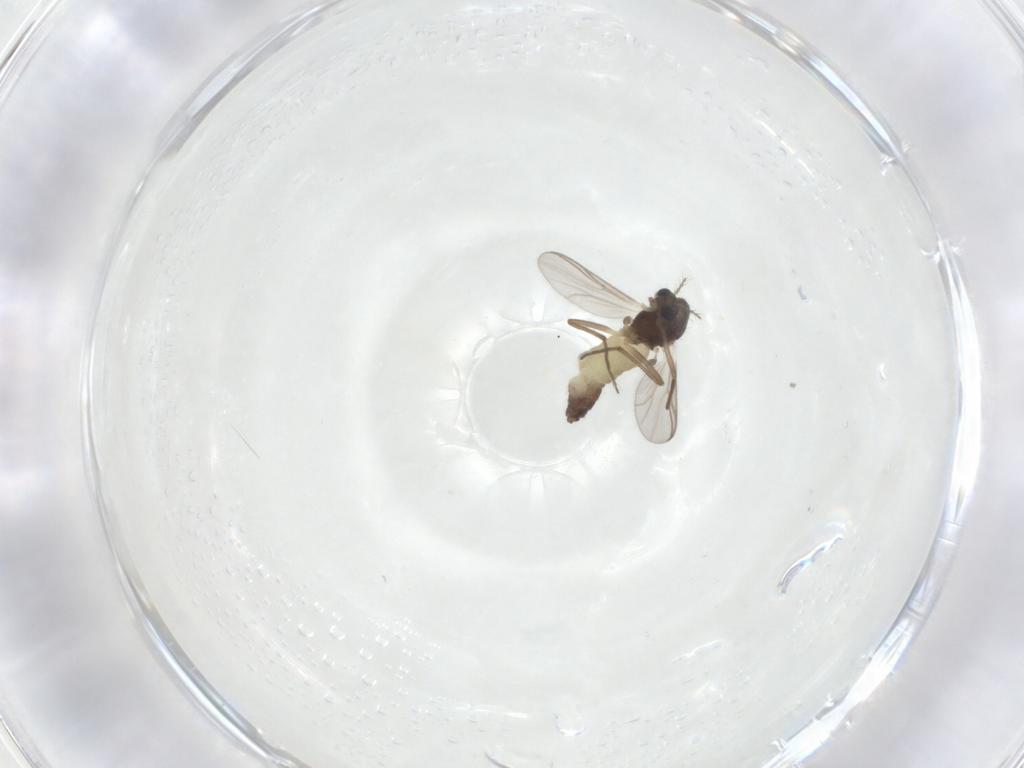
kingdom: Animalia
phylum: Arthropoda
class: Insecta
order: Diptera
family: Chironomidae
